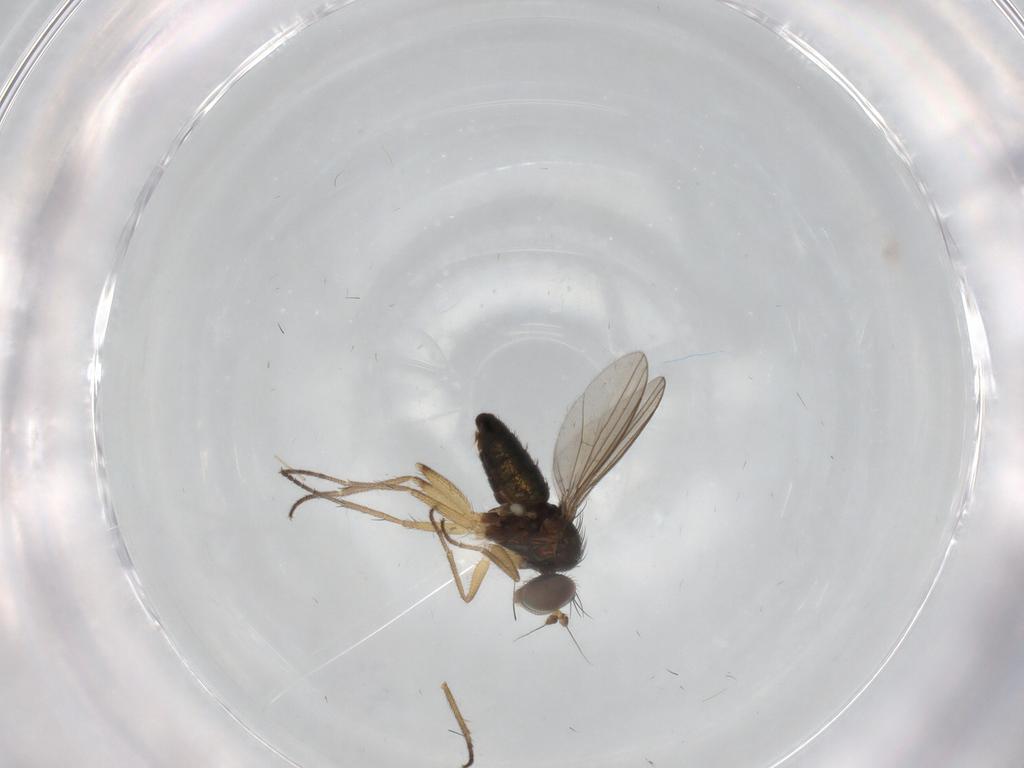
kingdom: Animalia
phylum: Arthropoda
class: Insecta
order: Diptera
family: Dolichopodidae
